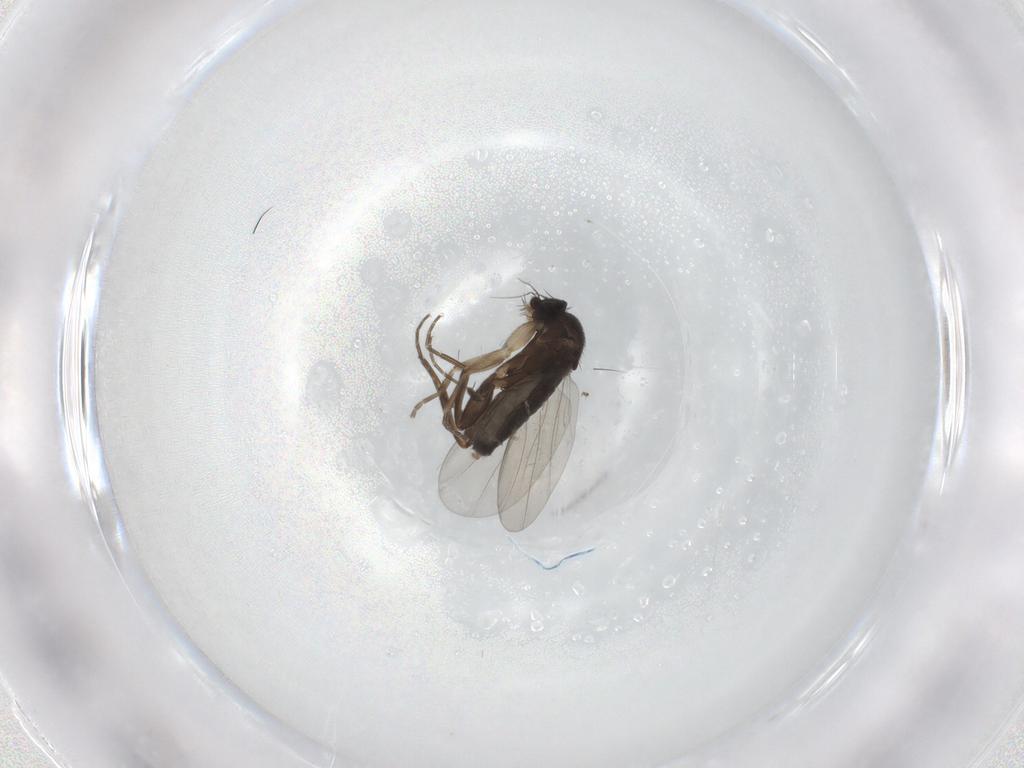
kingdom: Animalia
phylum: Arthropoda
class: Insecta
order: Diptera
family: Phoridae
